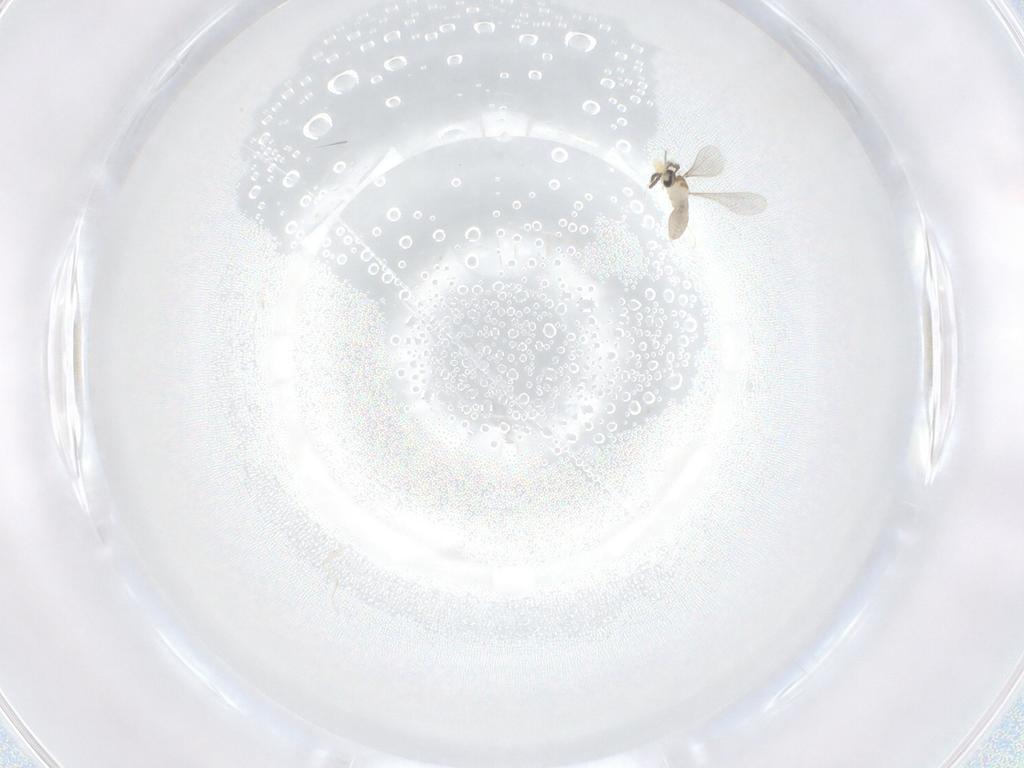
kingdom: Animalia
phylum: Arthropoda
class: Insecta
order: Diptera
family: Cecidomyiidae
